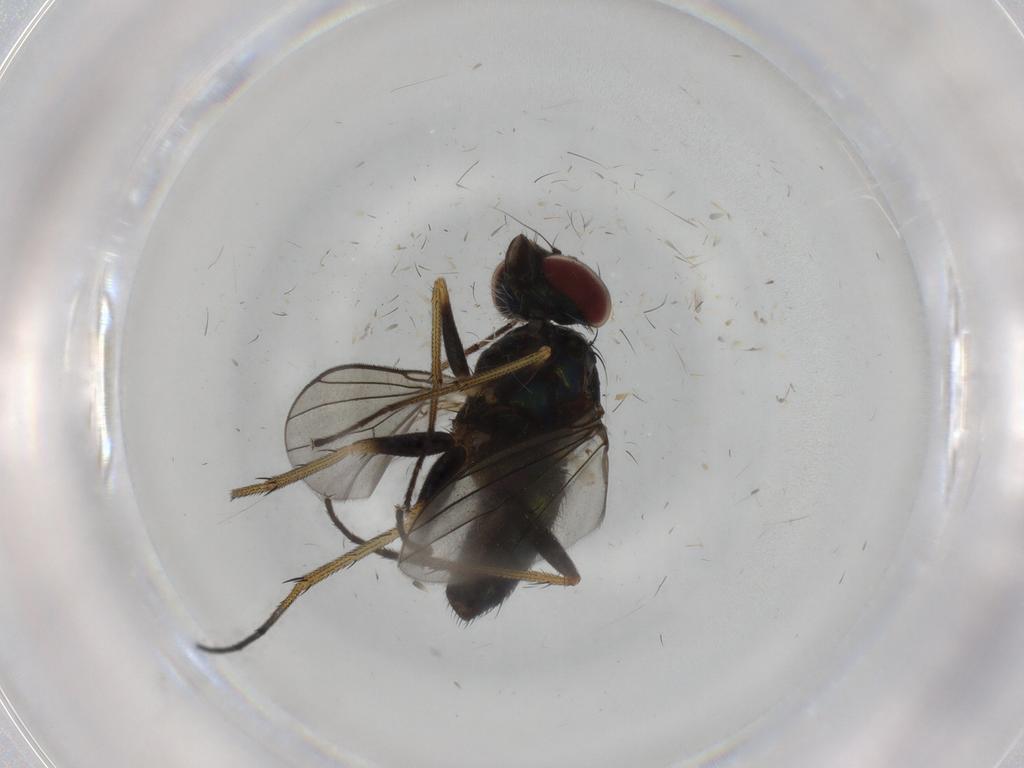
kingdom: Animalia
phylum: Arthropoda
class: Insecta
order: Diptera
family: Dolichopodidae
